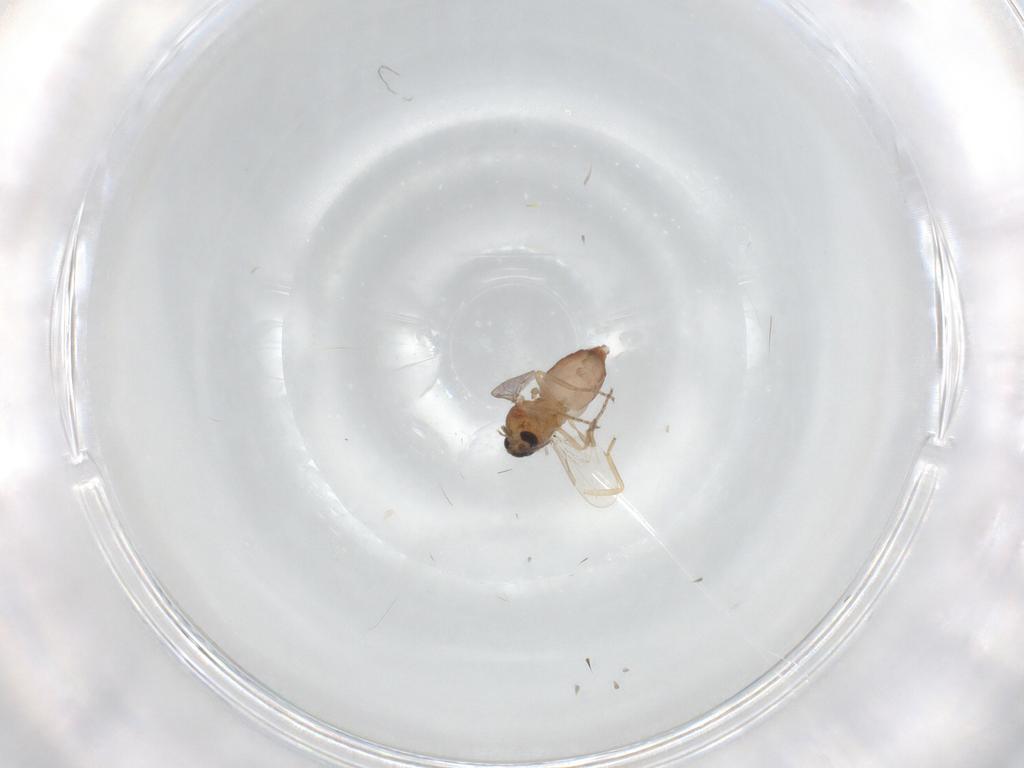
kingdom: Animalia
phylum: Arthropoda
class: Insecta
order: Diptera
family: Ceratopogonidae
